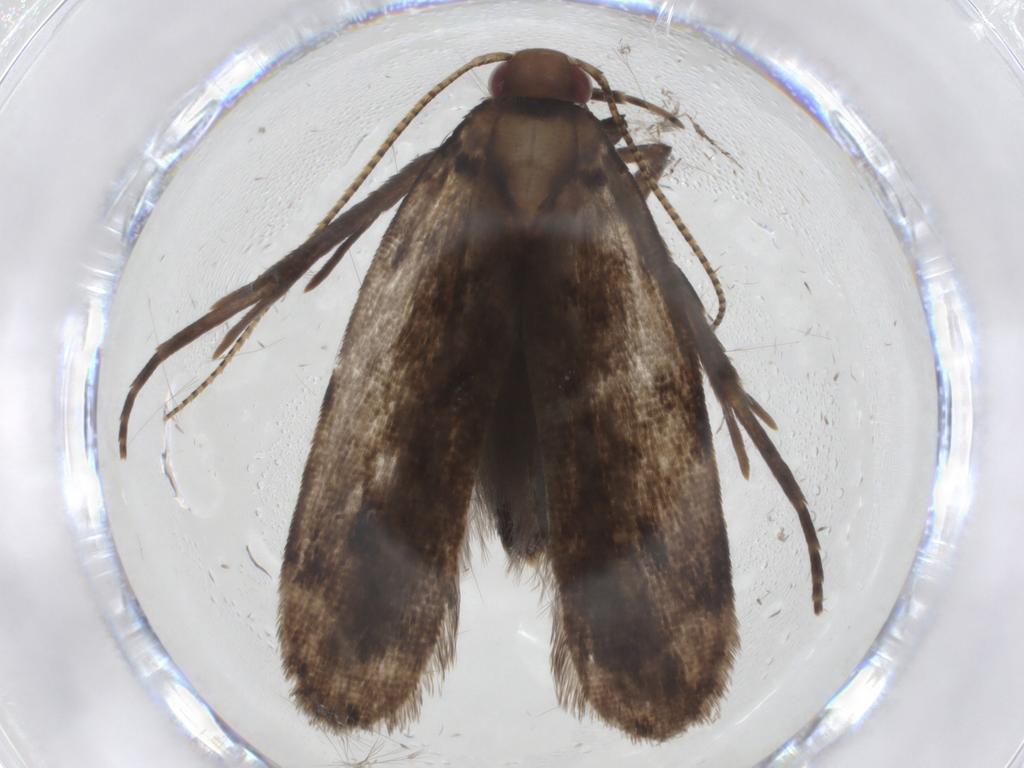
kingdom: Animalia
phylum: Arthropoda
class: Insecta
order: Lepidoptera
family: Gelechiidae
